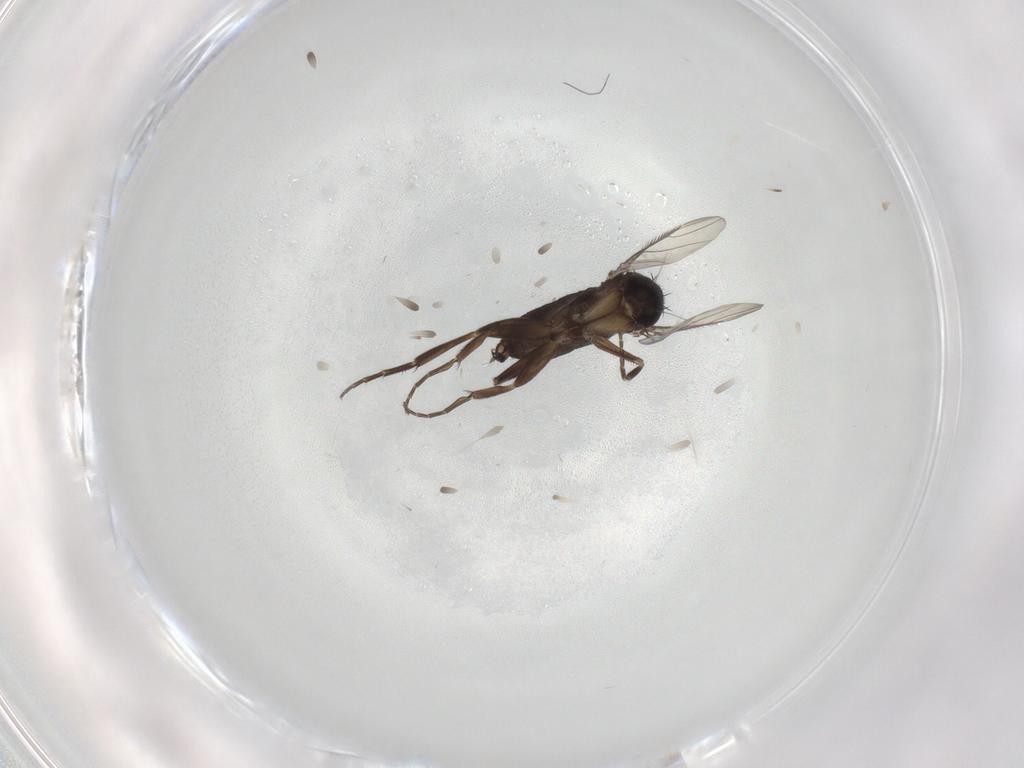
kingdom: Animalia
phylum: Arthropoda
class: Insecta
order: Diptera
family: Phoridae
